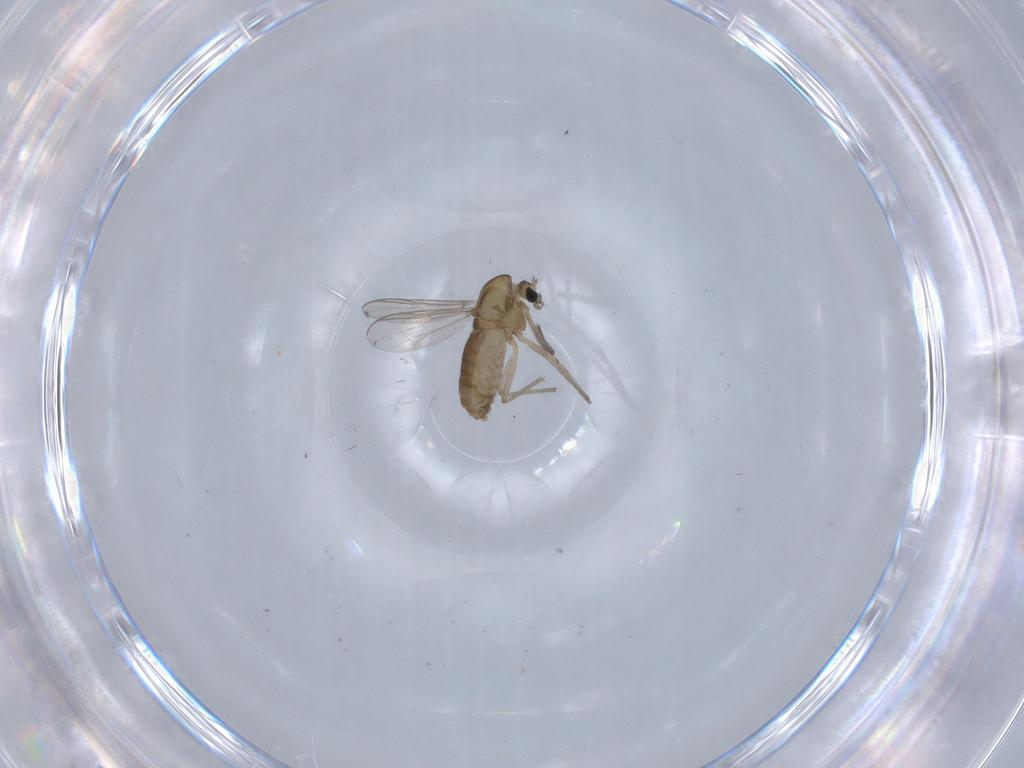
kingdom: Animalia
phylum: Arthropoda
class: Insecta
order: Diptera
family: Chironomidae
